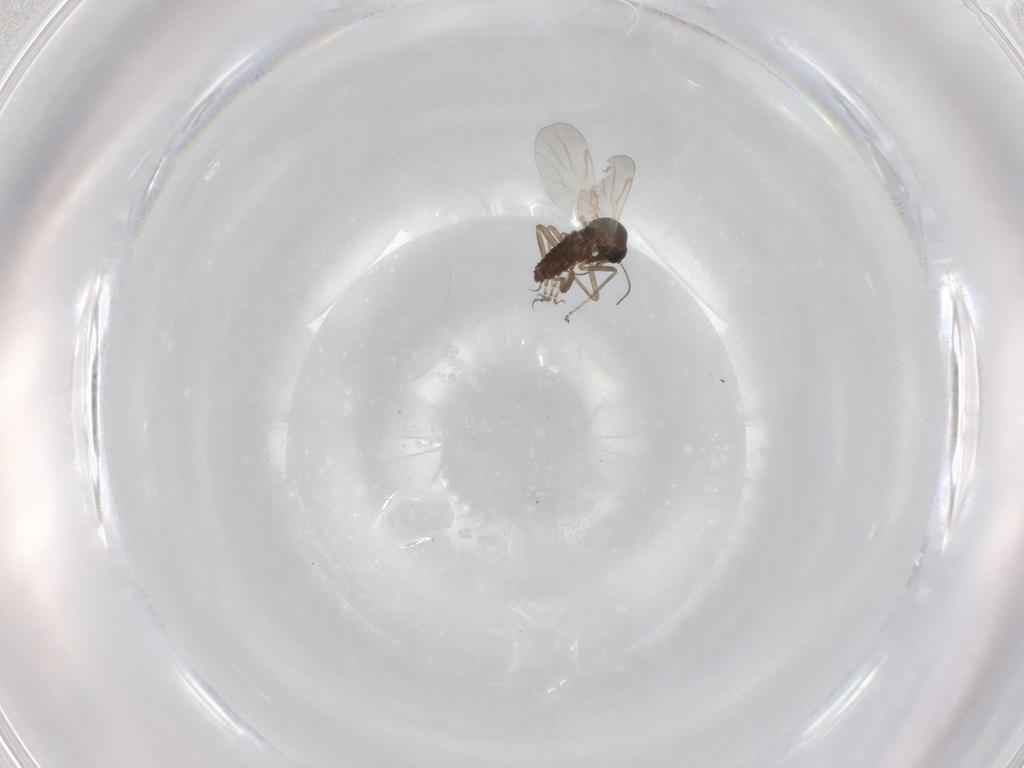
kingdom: Animalia
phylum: Arthropoda
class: Insecta
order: Diptera
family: Ceratopogonidae
